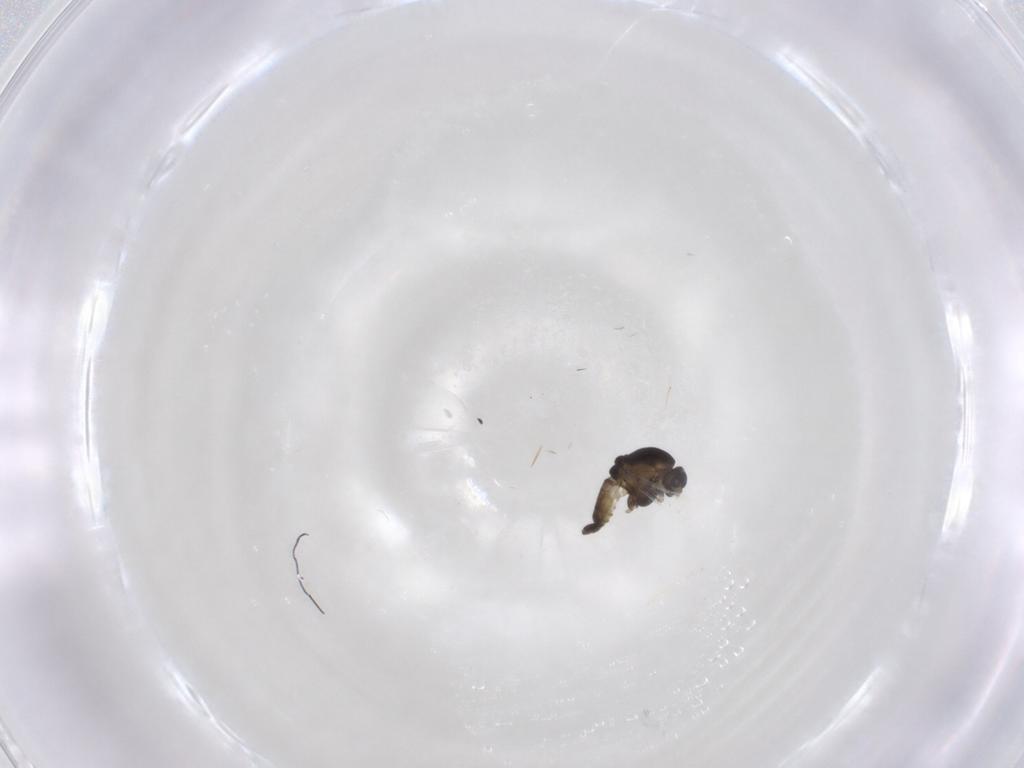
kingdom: Animalia
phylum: Arthropoda
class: Insecta
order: Diptera
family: Chironomidae
